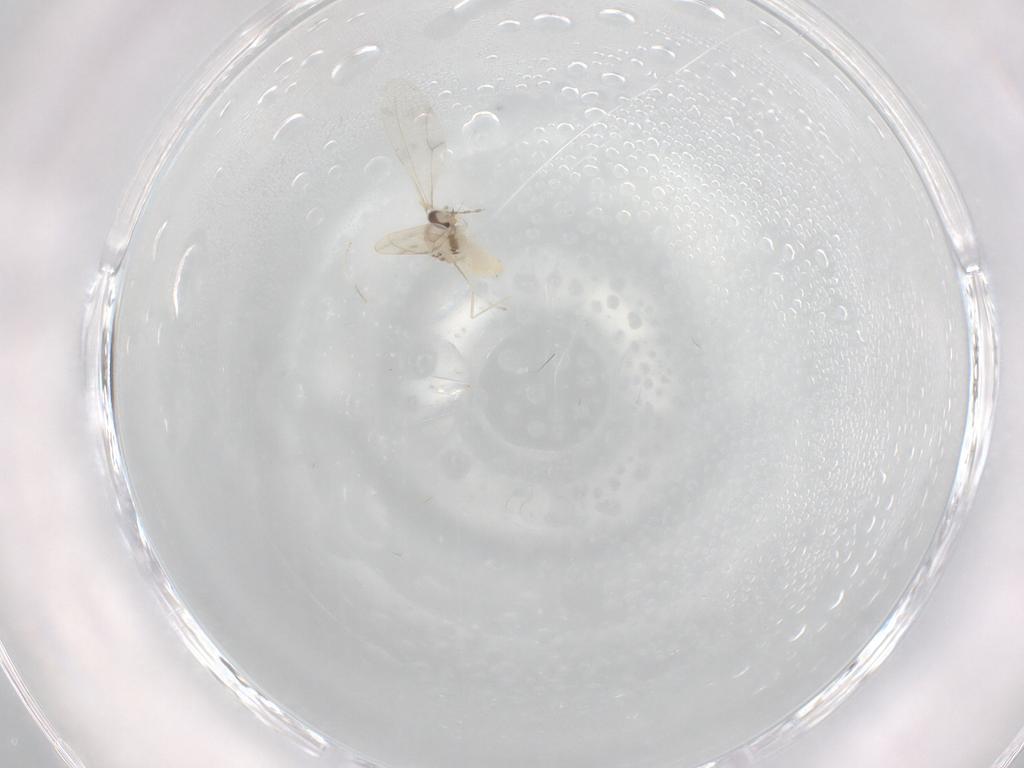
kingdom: Animalia
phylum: Arthropoda
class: Insecta
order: Diptera
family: Cecidomyiidae
